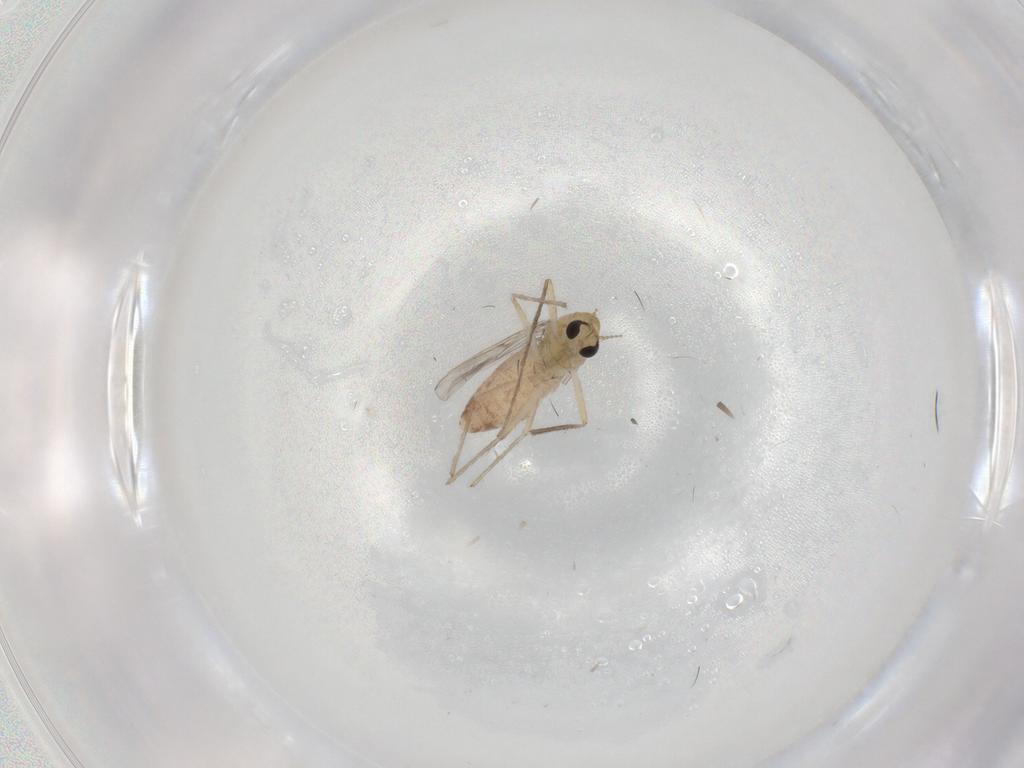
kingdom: Animalia
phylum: Arthropoda
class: Insecta
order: Diptera
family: Chironomidae
